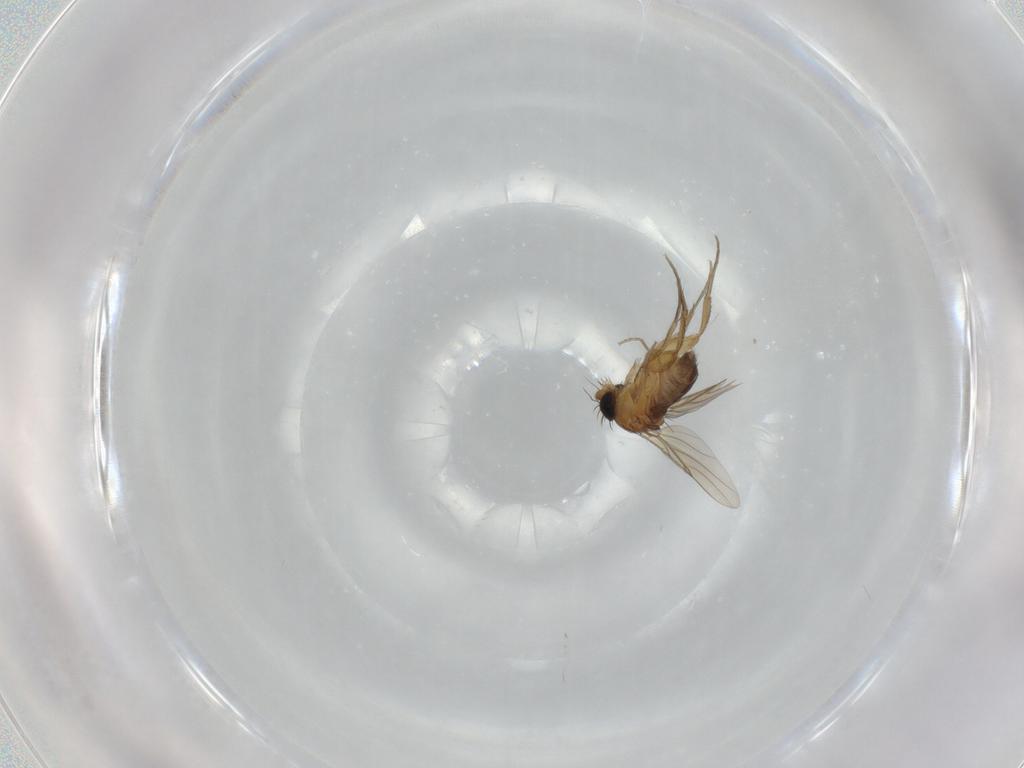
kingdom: Animalia
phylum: Arthropoda
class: Insecta
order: Diptera
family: Phoridae
